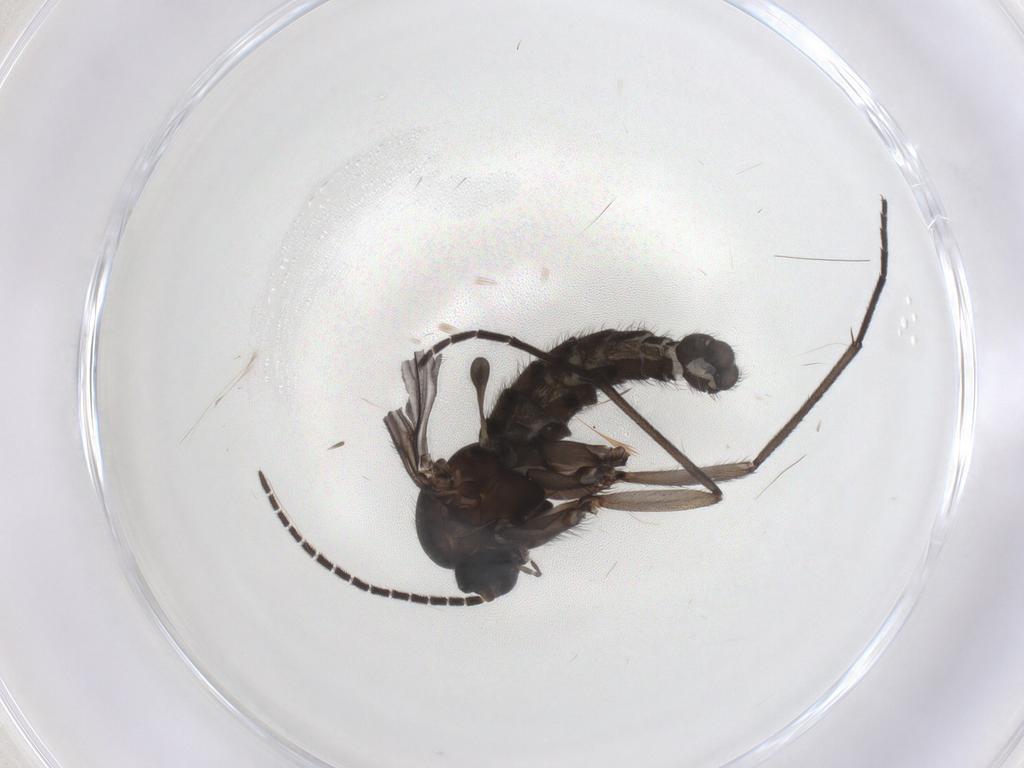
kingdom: Animalia
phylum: Arthropoda
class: Insecta
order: Diptera
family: Sciaridae
